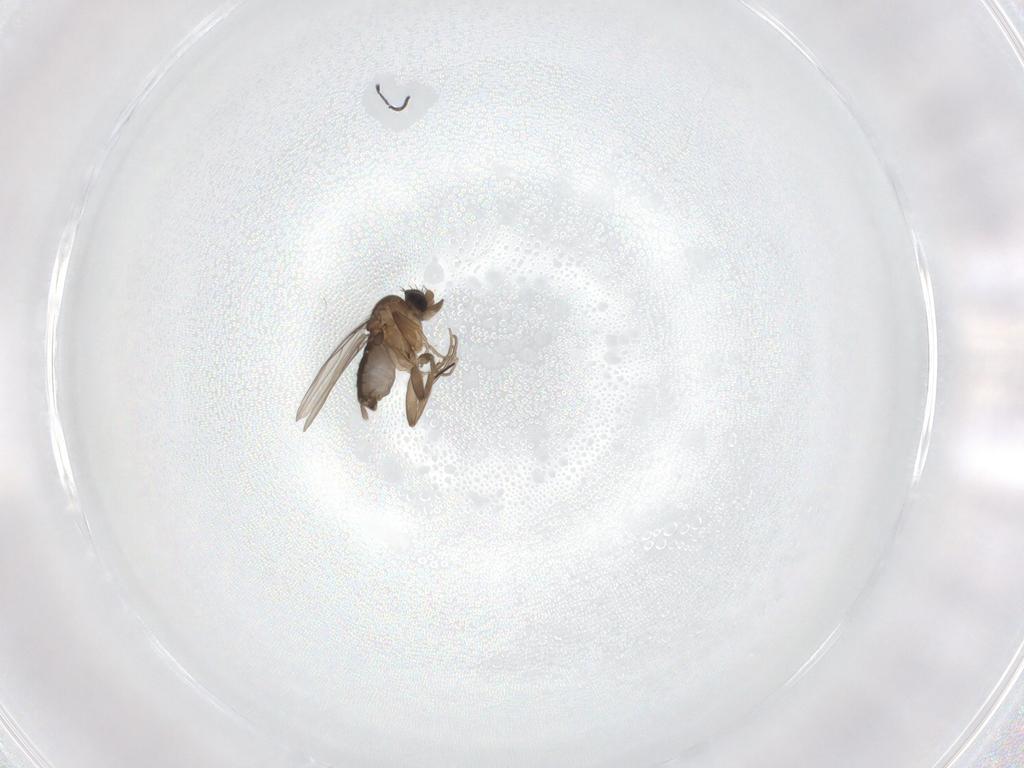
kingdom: Animalia
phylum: Arthropoda
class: Insecta
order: Diptera
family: Phoridae
